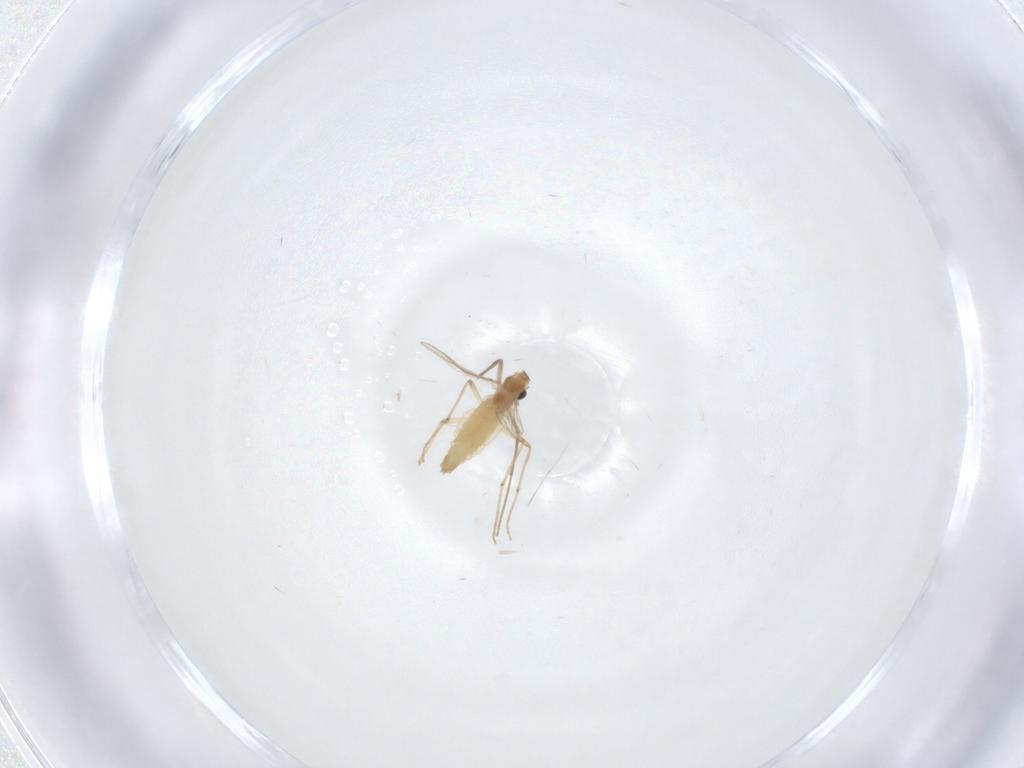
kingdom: Animalia
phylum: Arthropoda
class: Insecta
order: Diptera
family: Chironomidae
